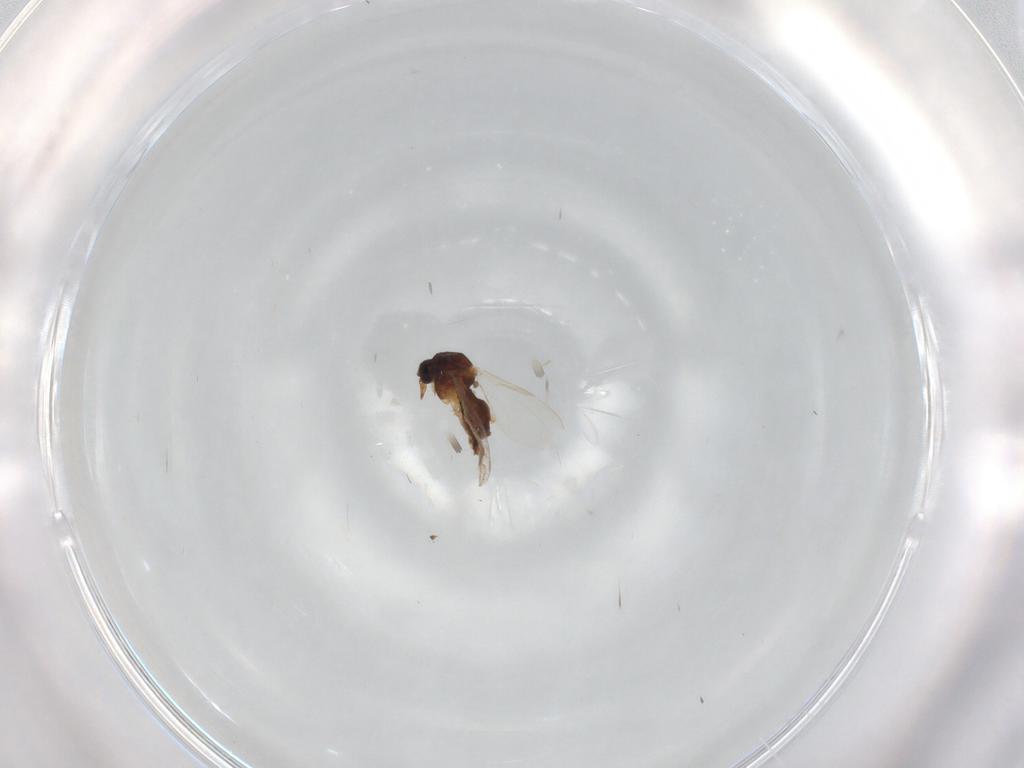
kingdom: Animalia
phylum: Arthropoda
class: Insecta
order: Diptera
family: Ceratopogonidae
